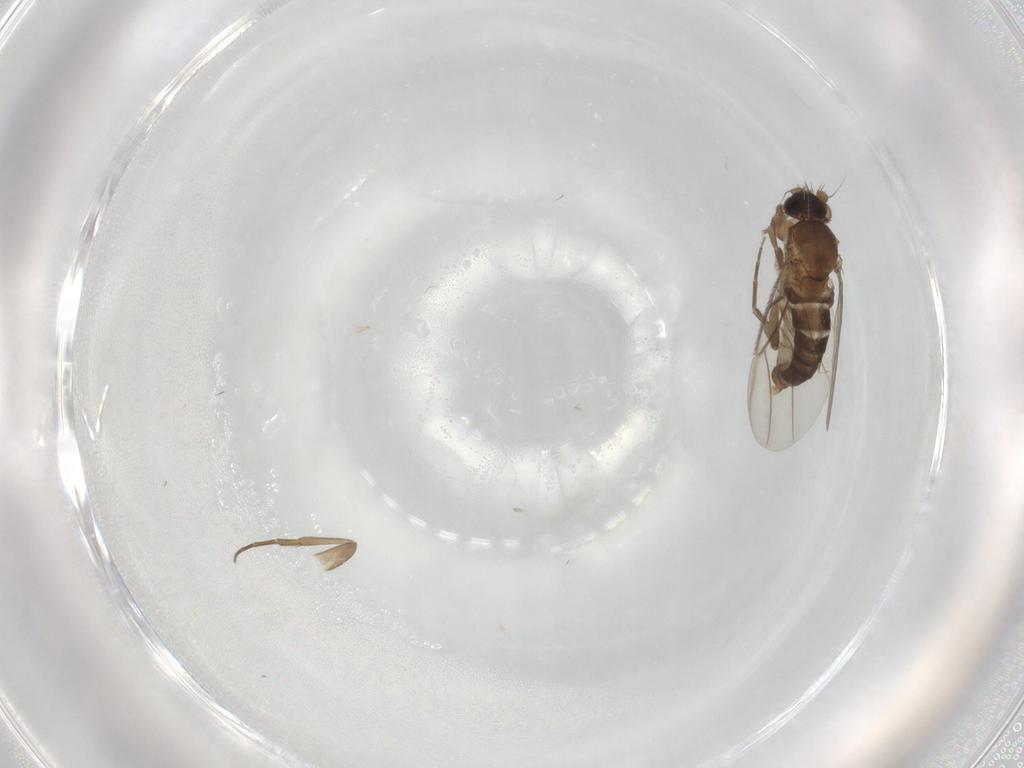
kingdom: Animalia
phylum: Arthropoda
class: Insecta
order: Diptera
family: Phoridae
